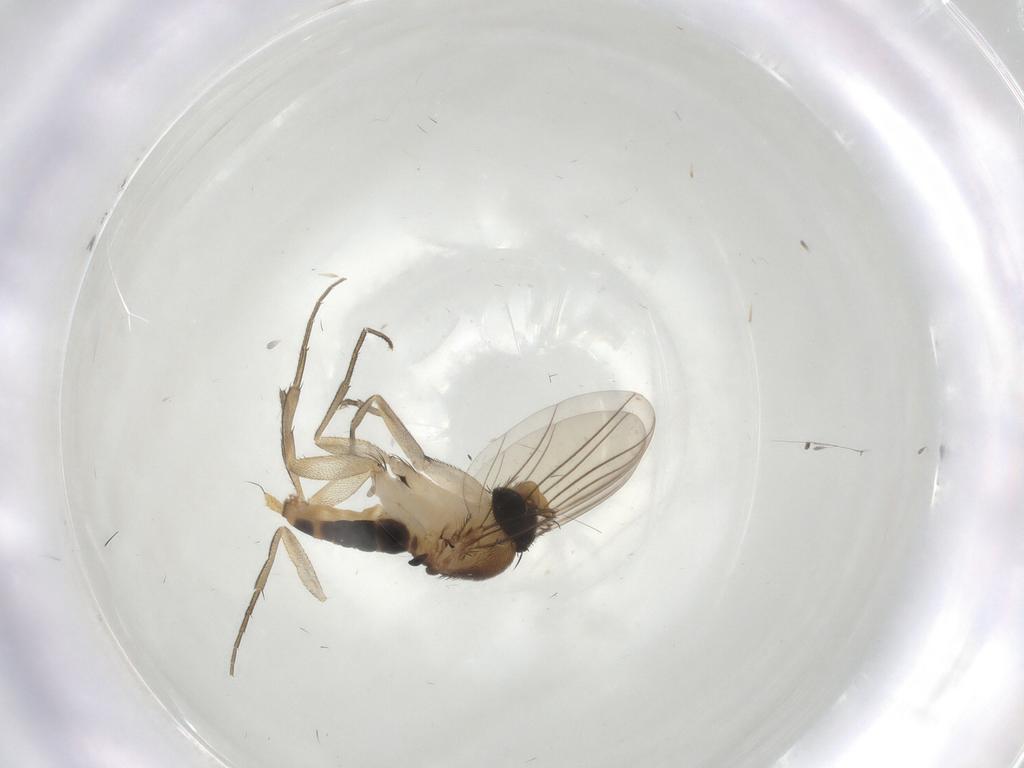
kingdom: Animalia
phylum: Arthropoda
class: Insecta
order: Diptera
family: Phoridae
